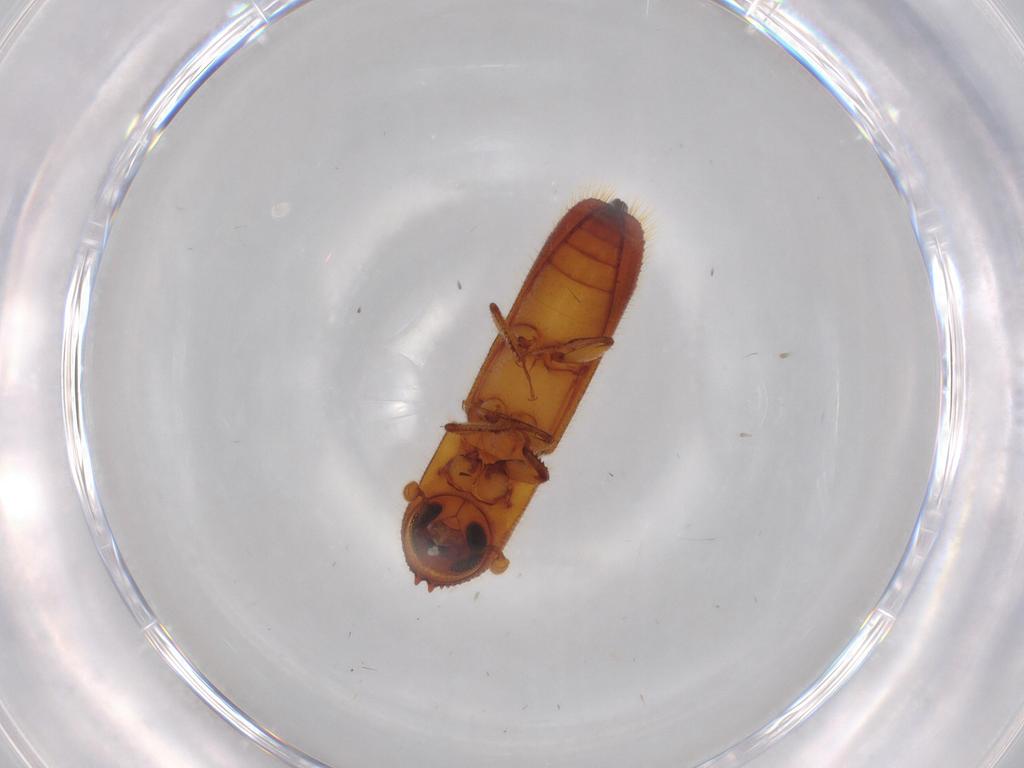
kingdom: Animalia
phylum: Arthropoda
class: Insecta
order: Coleoptera
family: Curculionidae
